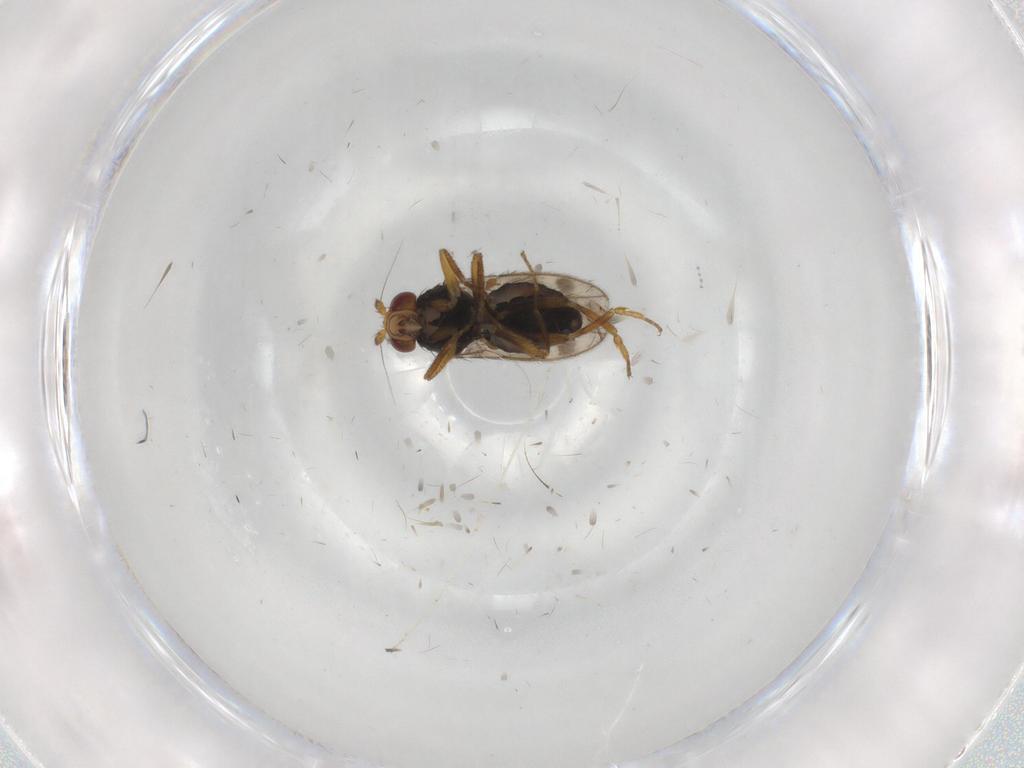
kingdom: Animalia
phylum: Arthropoda
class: Insecta
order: Diptera
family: Sphaeroceridae
